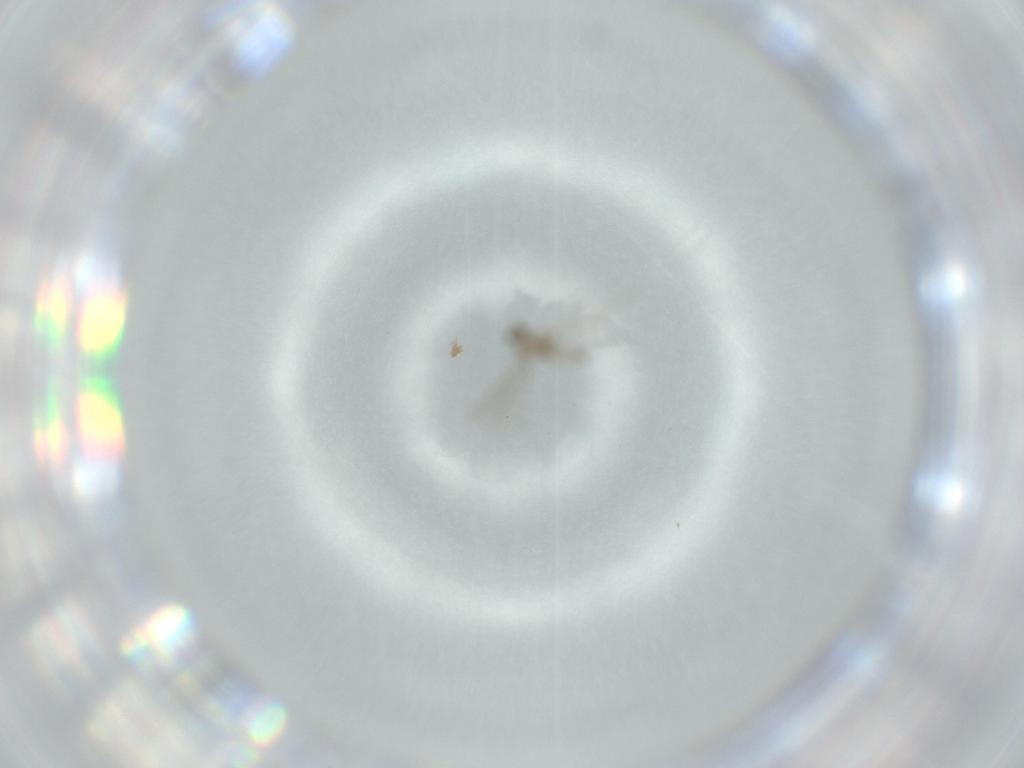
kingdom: Animalia
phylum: Arthropoda
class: Insecta
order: Diptera
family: Cecidomyiidae
